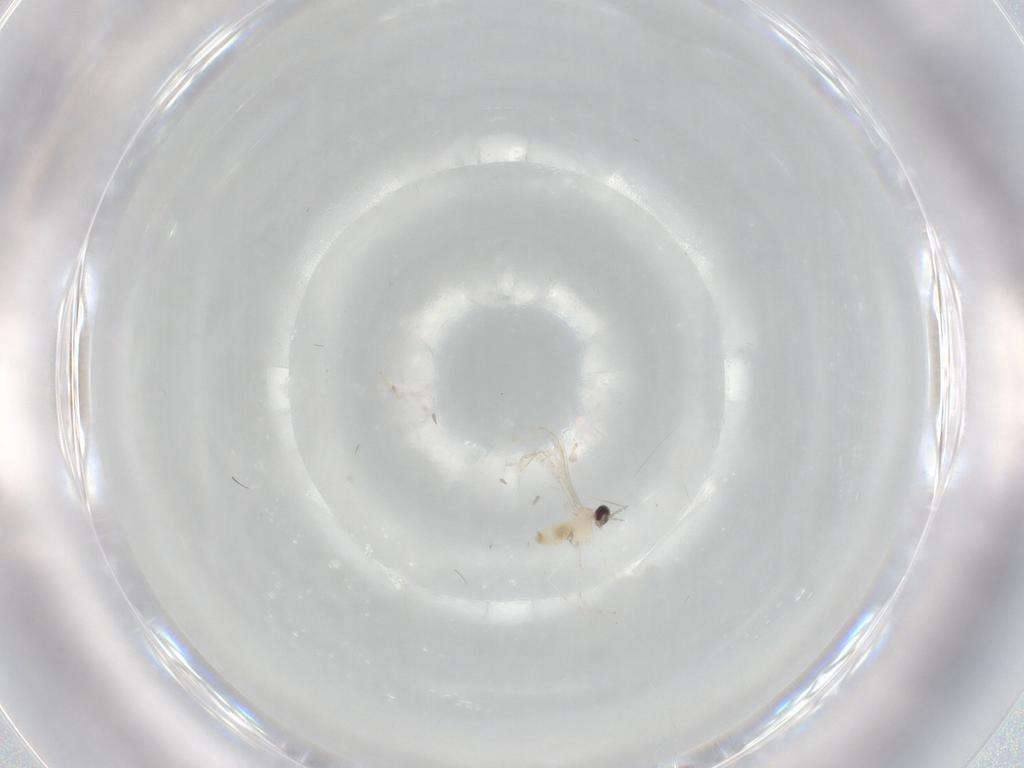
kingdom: Animalia
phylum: Arthropoda
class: Insecta
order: Diptera
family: Cecidomyiidae
